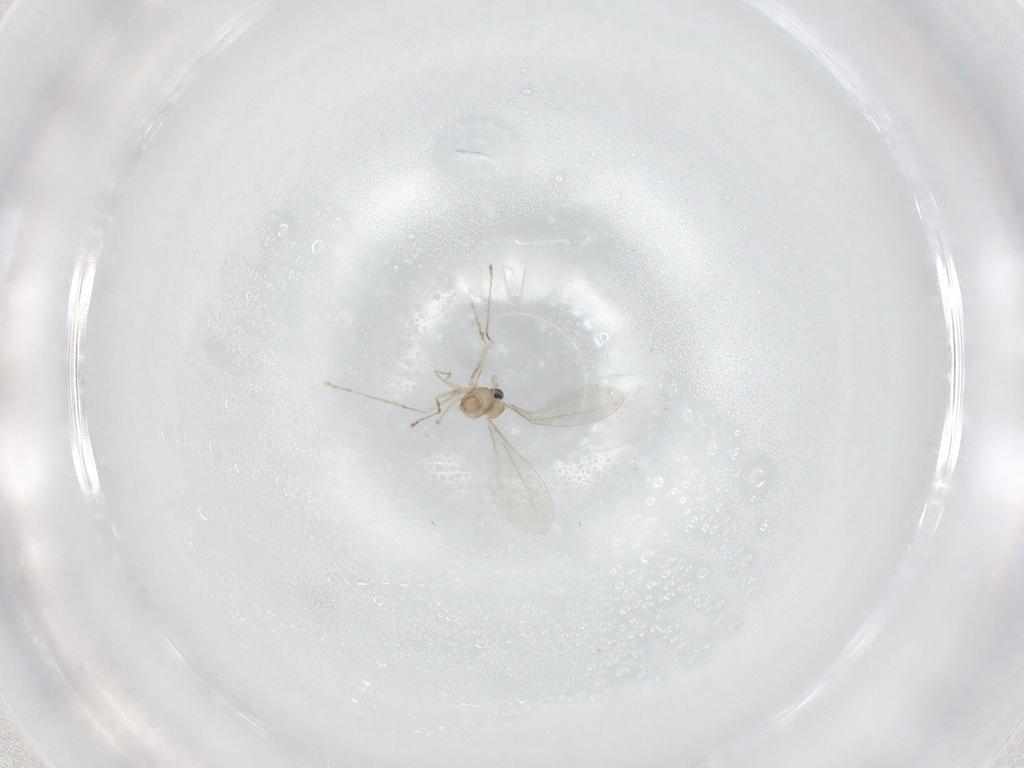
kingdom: Animalia
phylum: Arthropoda
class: Insecta
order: Diptera
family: Cecidomyiidae
